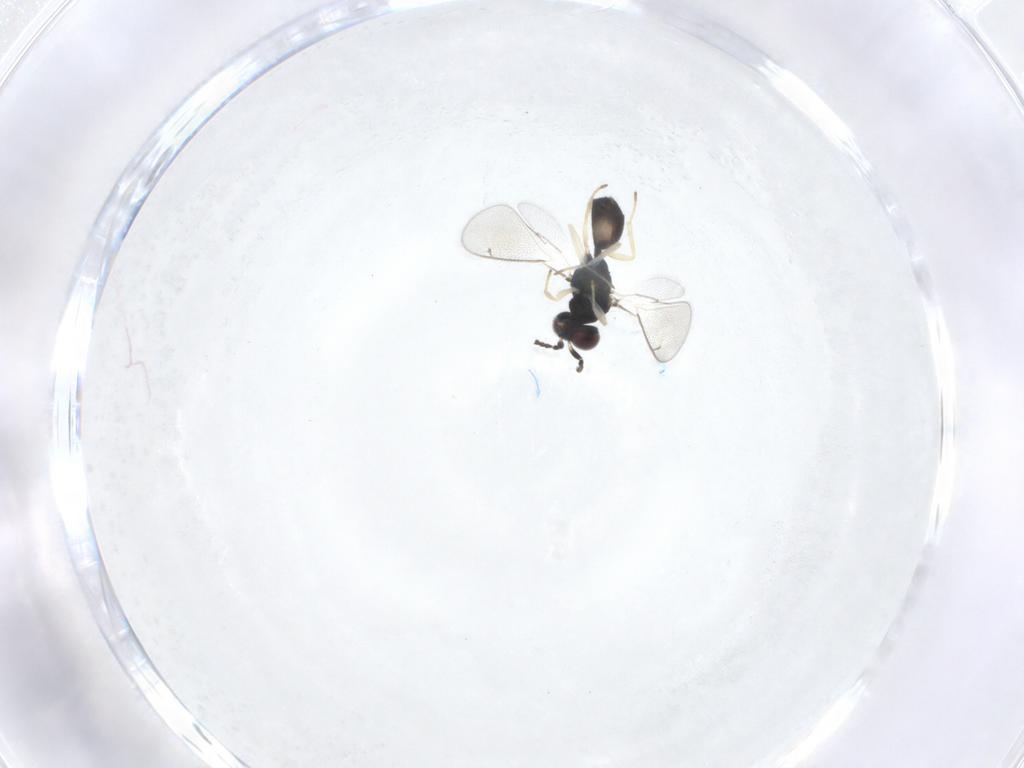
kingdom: Animalia
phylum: Arthropoda
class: Insecta
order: Hymenoptera
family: Eulophidae
